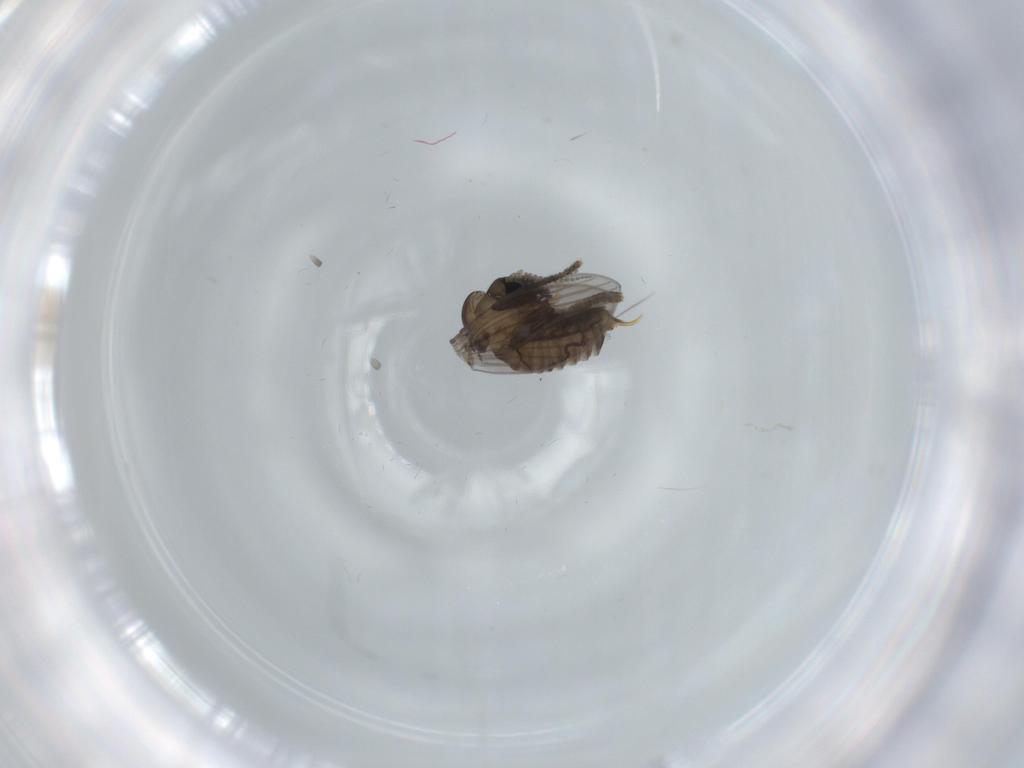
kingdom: Animalia
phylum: Arthropoda
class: Insecta
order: Diptera
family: Psychodidae
